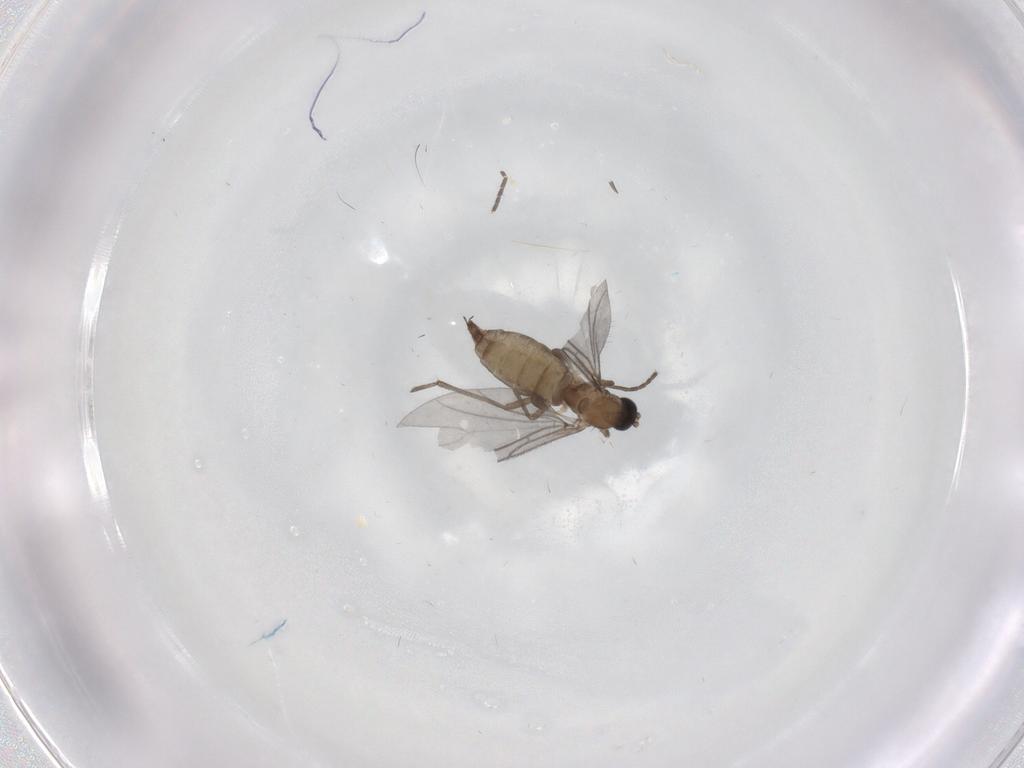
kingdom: Animalia
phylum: Arthropoda
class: Insecta
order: Diptera
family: Sciaridae
